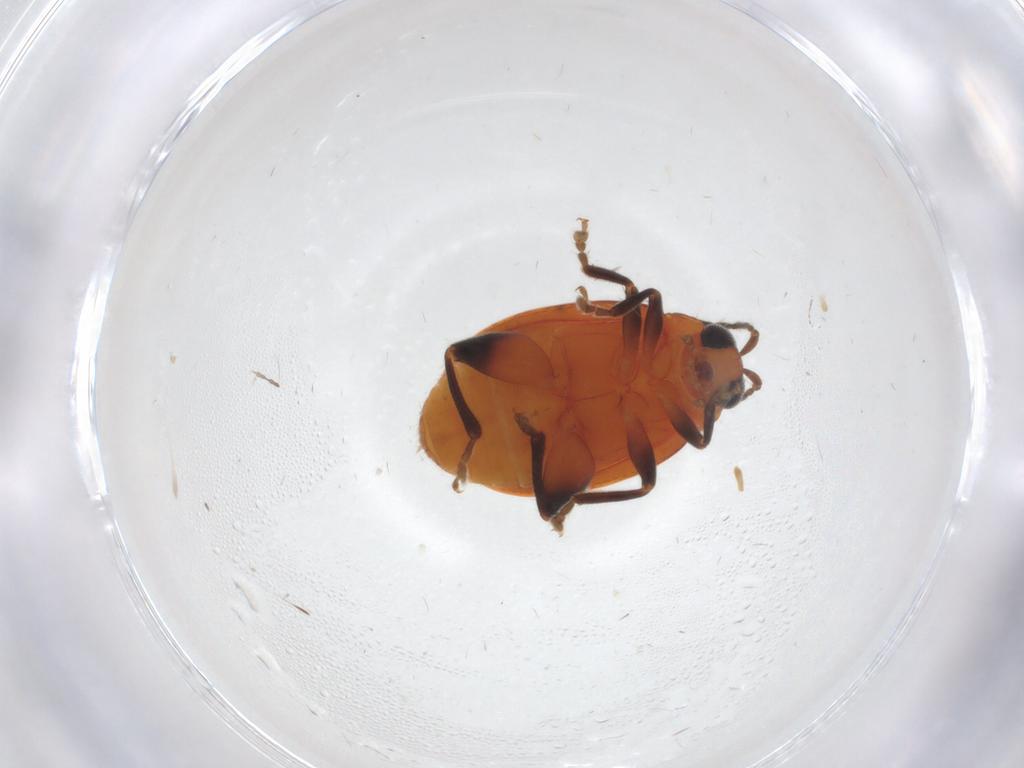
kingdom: Animalia
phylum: Arthropoda
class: Insecta
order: Coleoptera
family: Chrysomelidae
